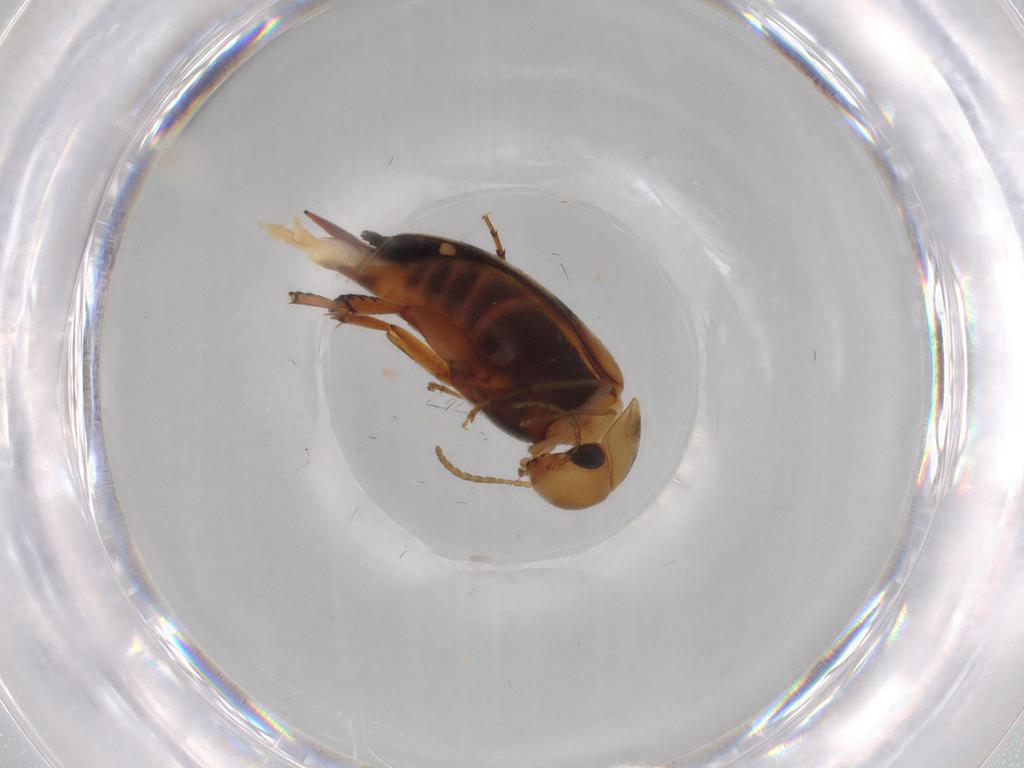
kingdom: Animalia
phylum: Arthropoda
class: Insecta
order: Coleoptera
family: Mordellidae
